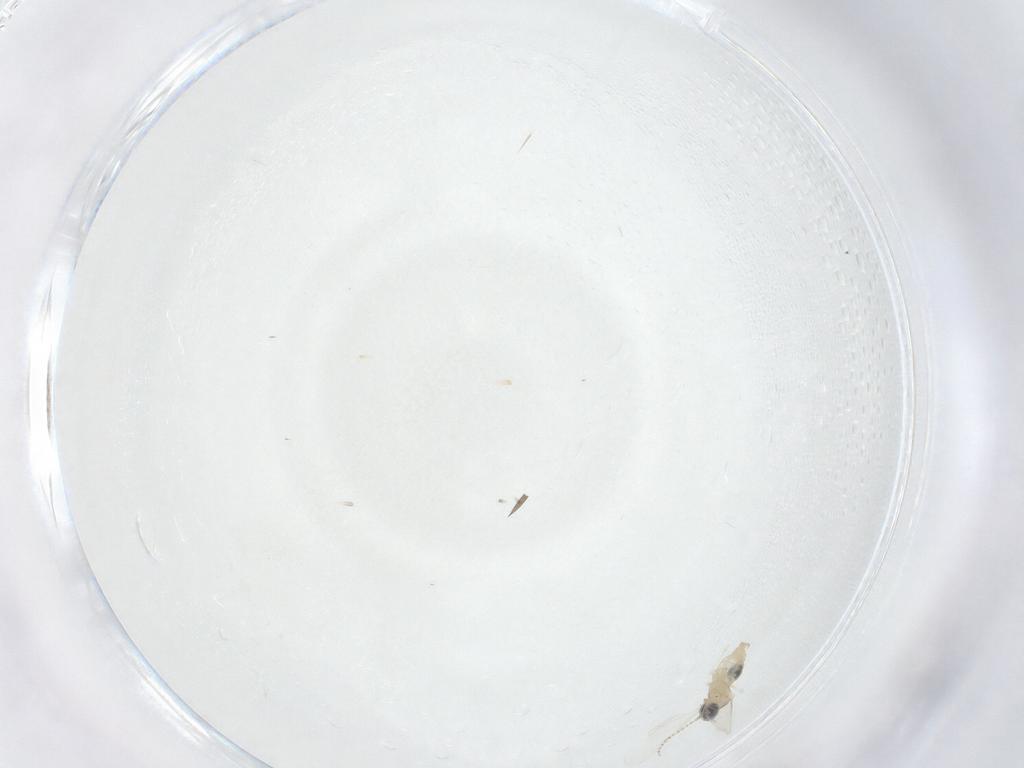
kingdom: Animalia
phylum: Arthropoda
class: Insecta
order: Diptera
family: Cecidomyiidae
